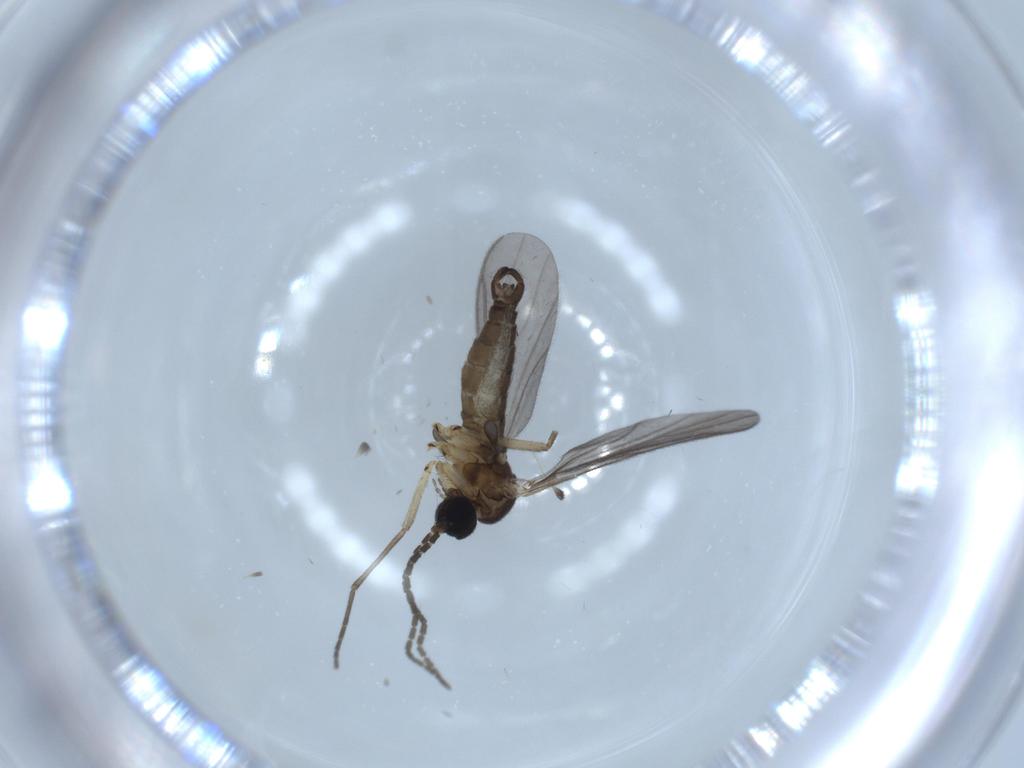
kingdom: Animalia
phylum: Arthropoda
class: Insecta
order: Diptera
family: Sciaridae
